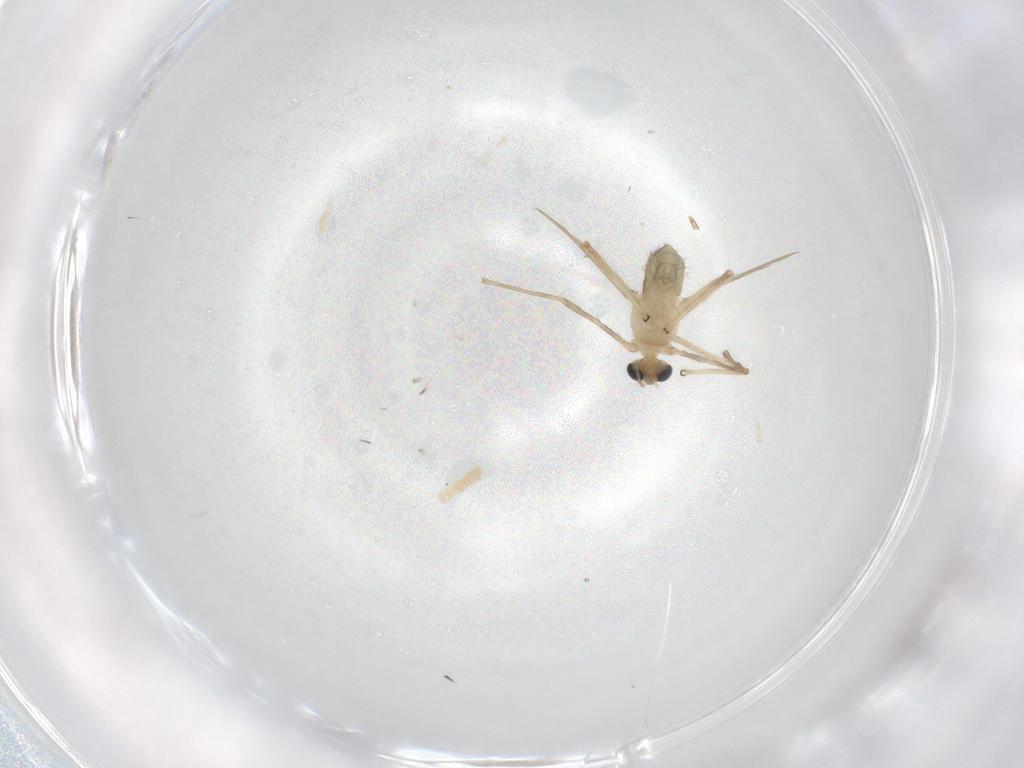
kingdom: Animalia
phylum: Arthropoda
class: Insecta
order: Diptera
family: Chironomidae
